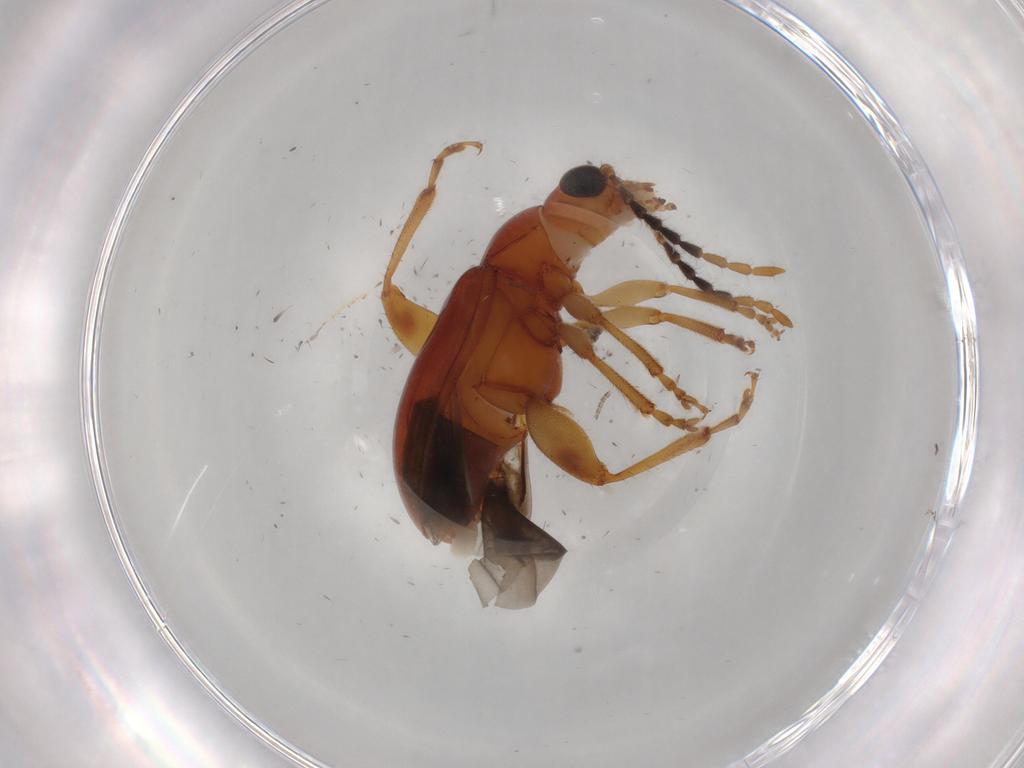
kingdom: Animalia
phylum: Arthropoda
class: Insecta
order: Coleoptera
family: Chrysomelidae
